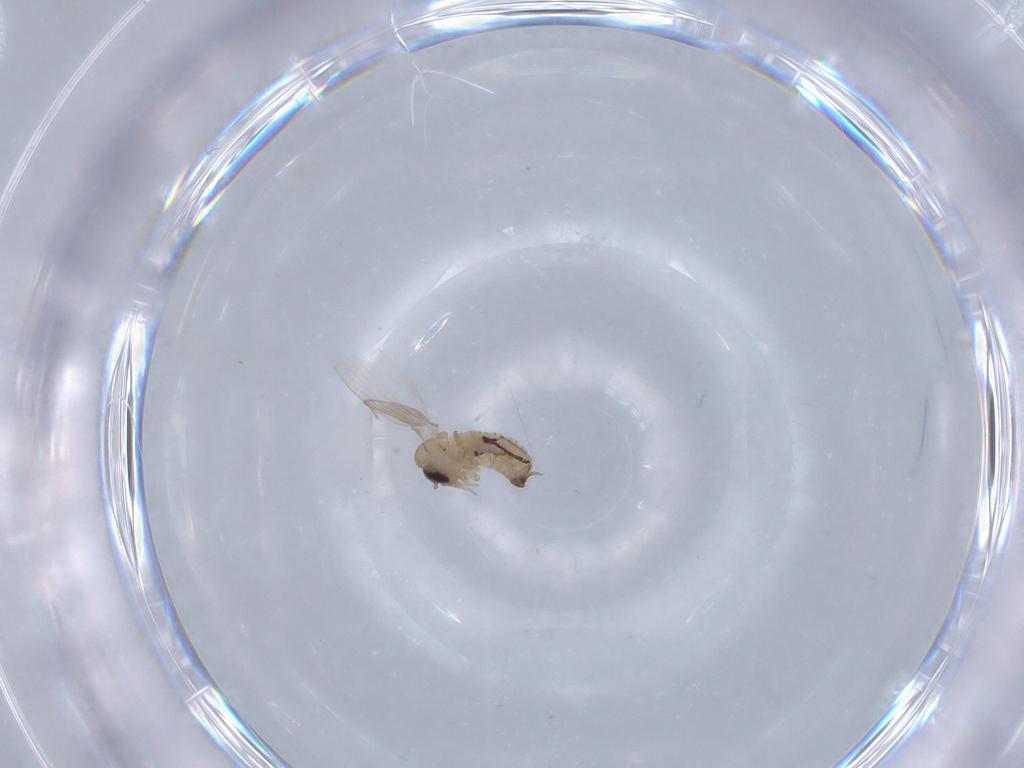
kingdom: Animalia
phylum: Arthropoda
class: Insecta
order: Diptera
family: Psychodidae
